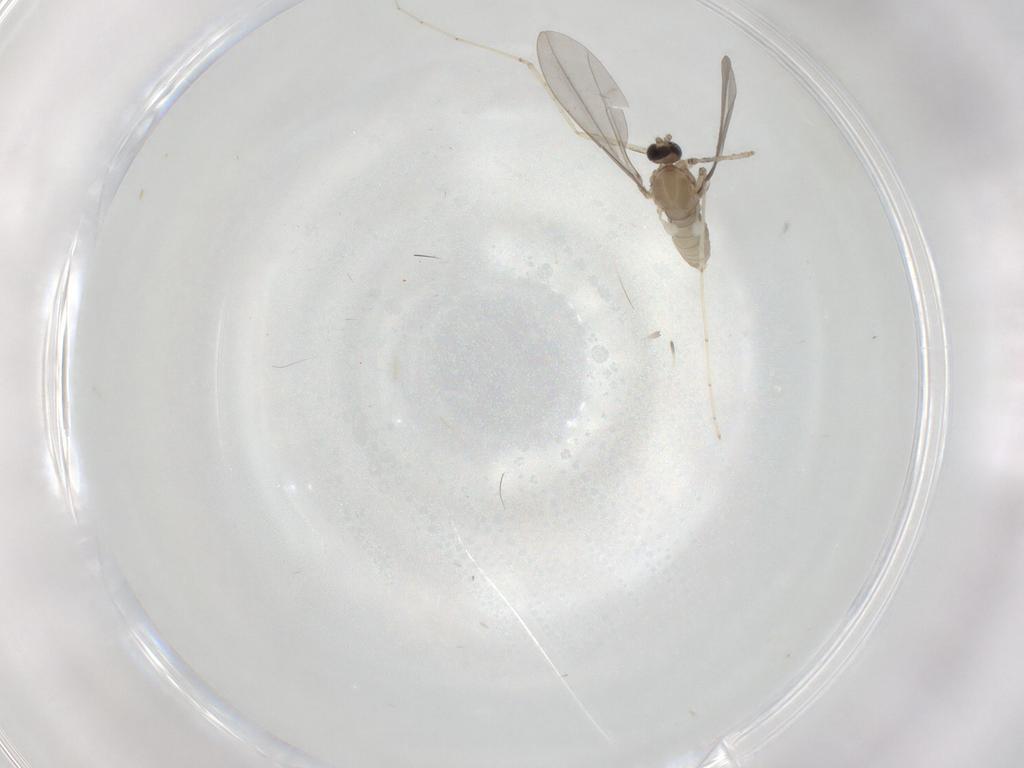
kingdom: Animalia
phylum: Arthropoda
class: Insecta
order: Diptera
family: Cecidomyiidae
